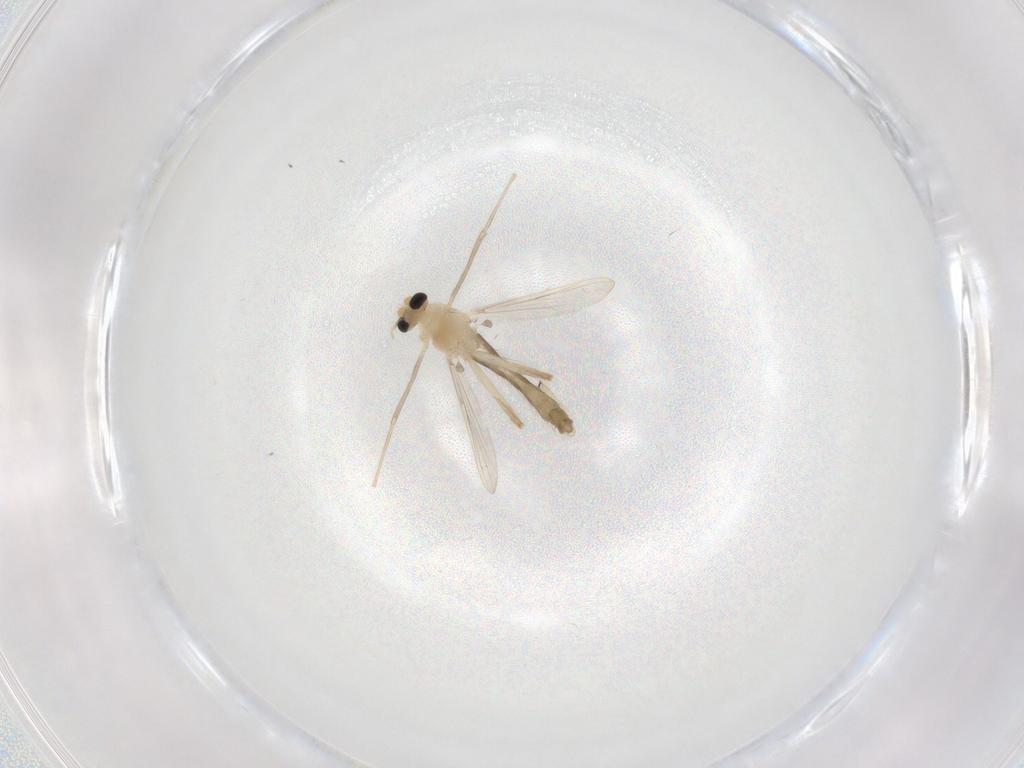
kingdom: Animalia
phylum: Arthropoda
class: Insecta
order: Diptera
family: Chironomidae
